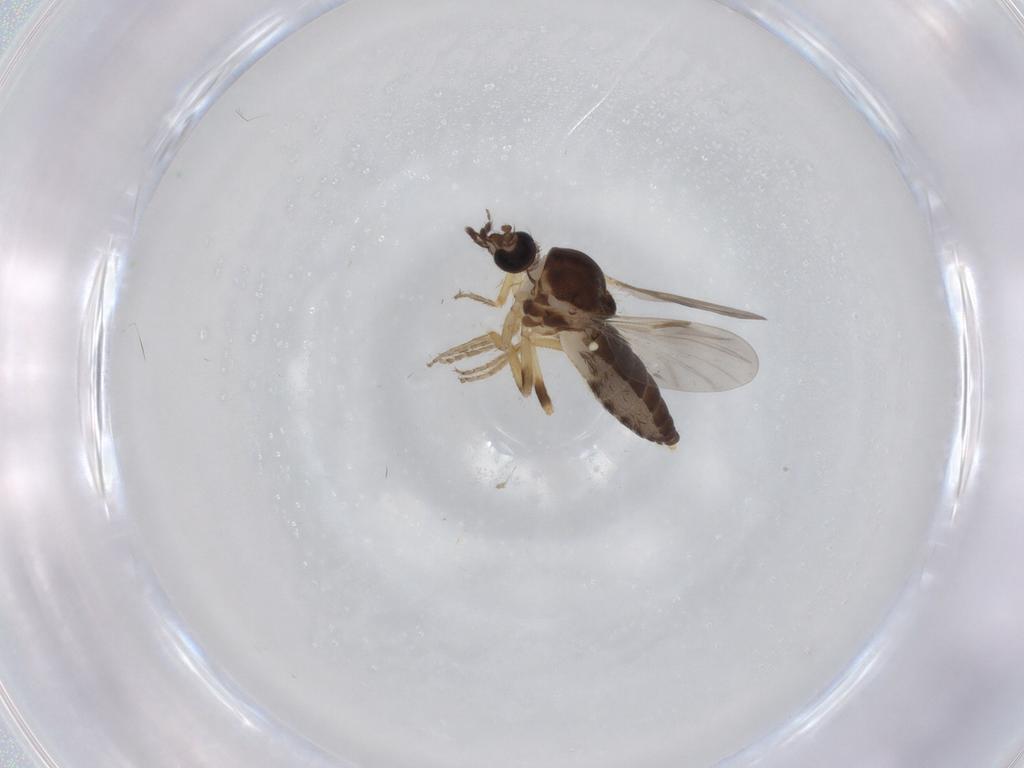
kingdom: Animalia
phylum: Arthropoda
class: Insecta
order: Diptera
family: Ceratopogonidae
